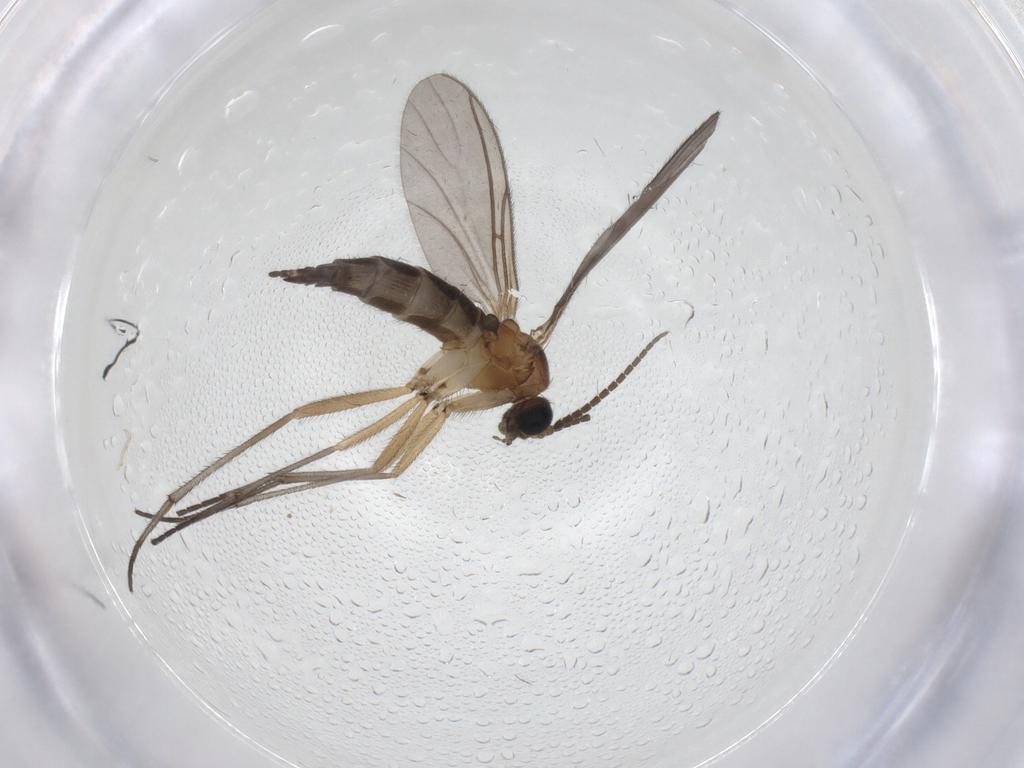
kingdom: Animalia
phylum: Arthropoda
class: Insecta
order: Diptera
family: Sciaridae
